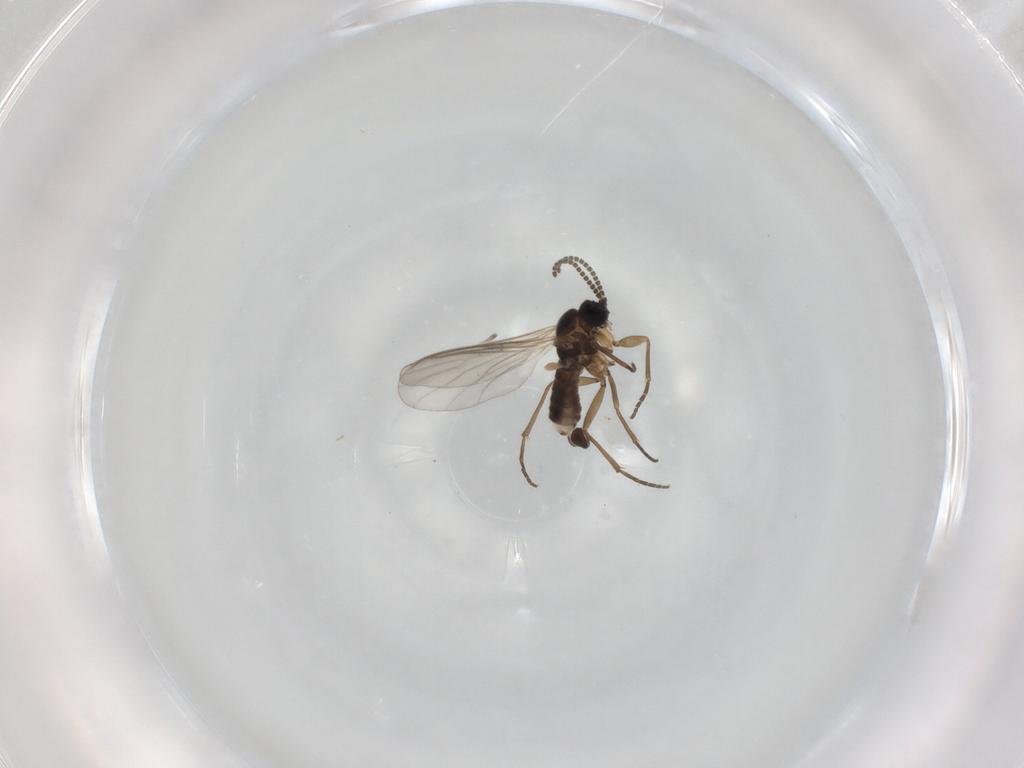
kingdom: Animalia
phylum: Arthropoda
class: Insecta
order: Diptera
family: Sciaridae
